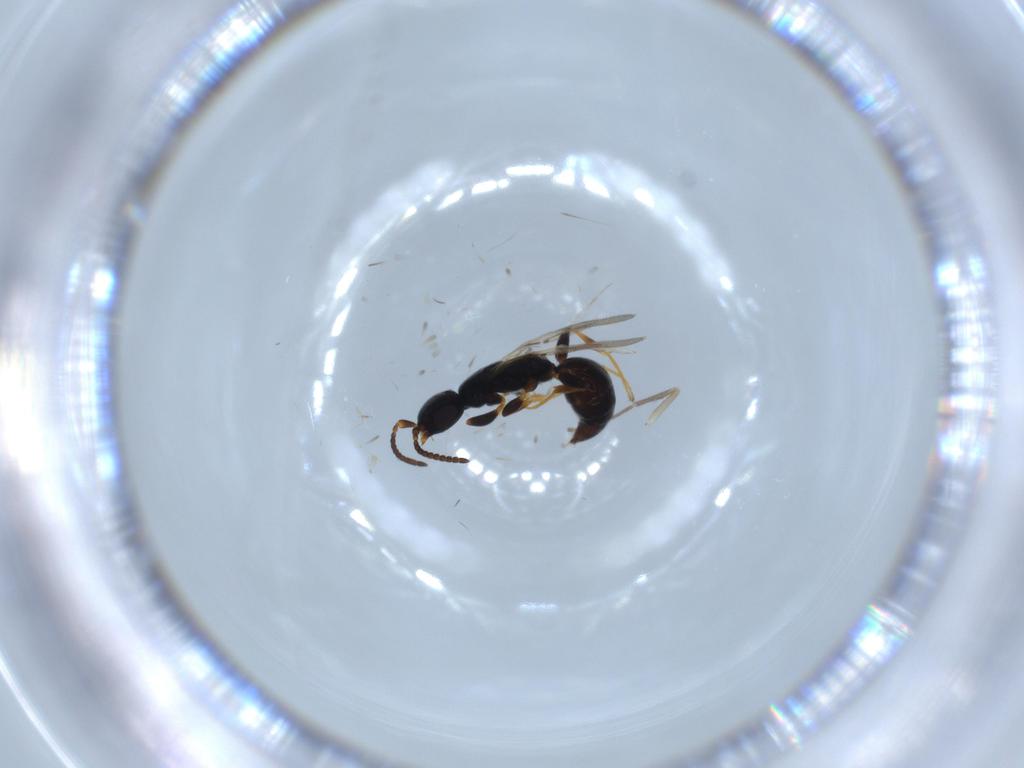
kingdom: Animalia
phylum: Arthropoda
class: Insecta
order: Hymenoptera
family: Bethylidae
